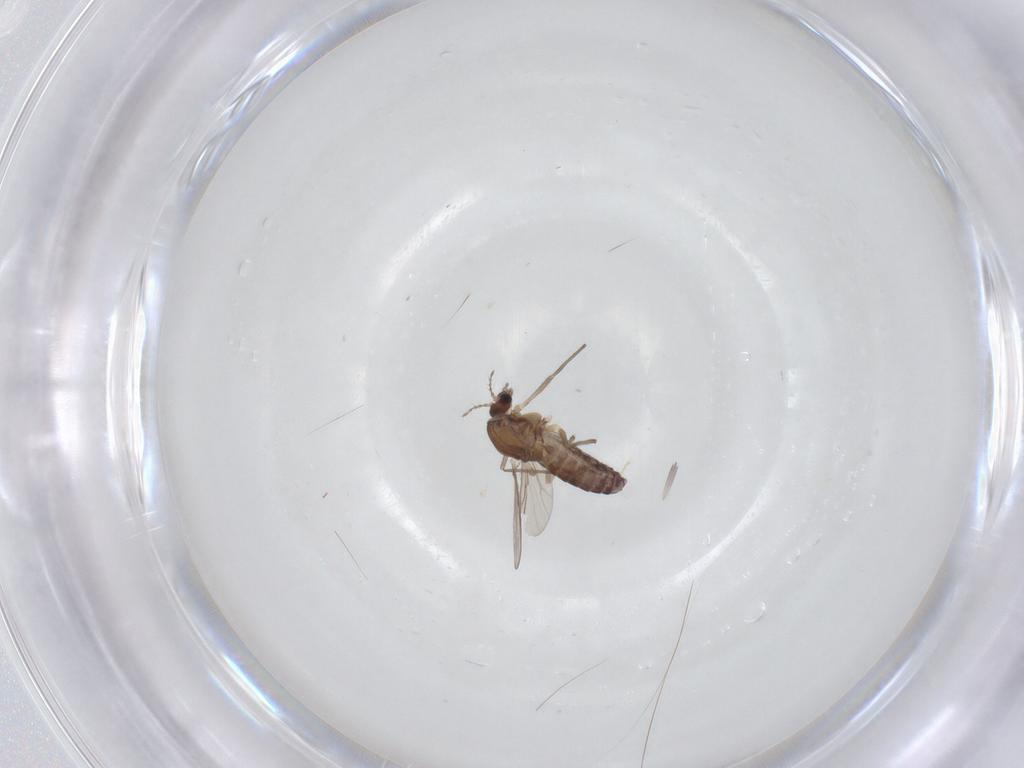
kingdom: Animalia
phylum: Arthropoda
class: Insecta
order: Diptera
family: Chironomidae
